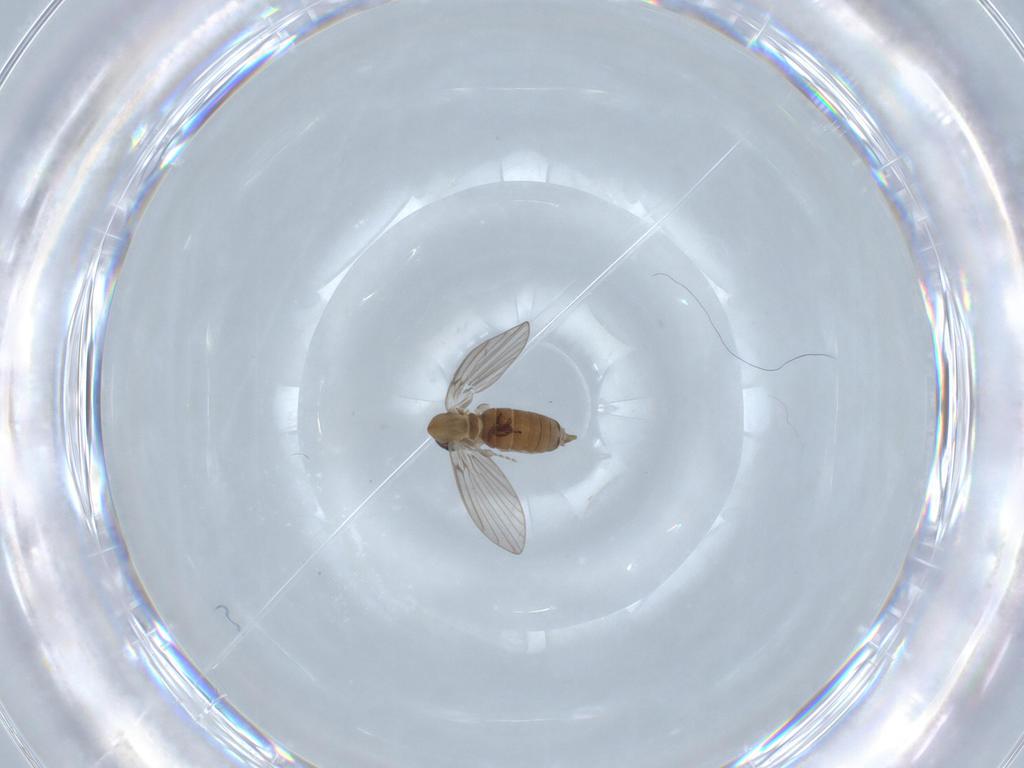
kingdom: Animalia
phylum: Arthropoda
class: Insecta
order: Diptera
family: Psychodidae
